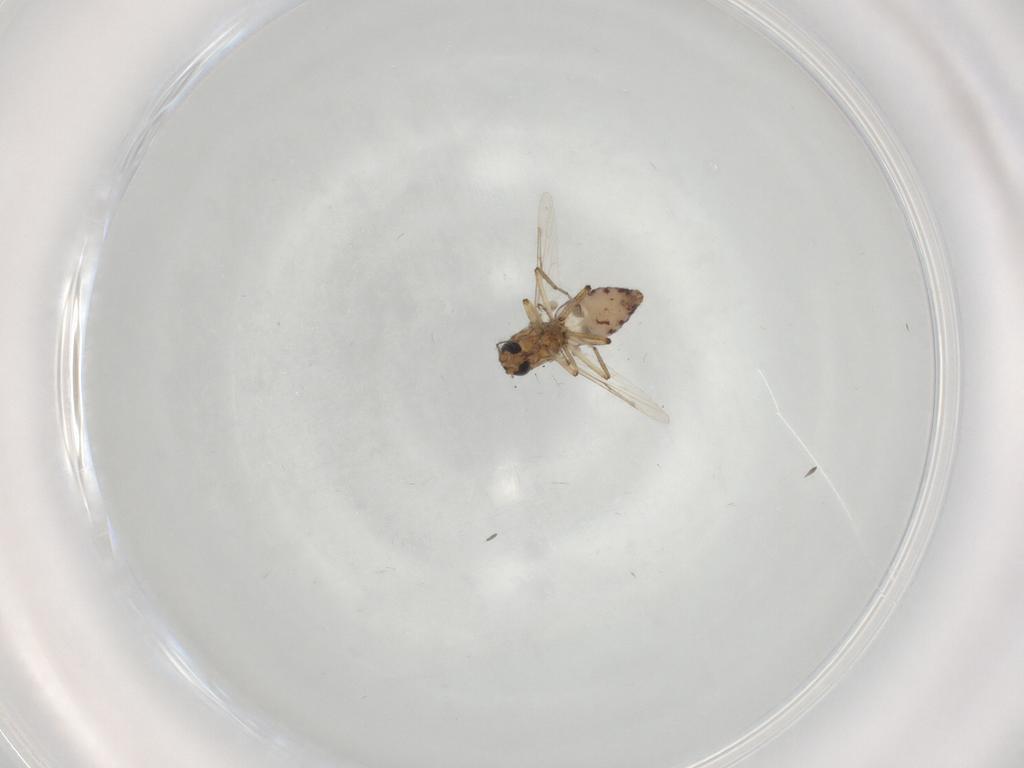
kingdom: Animalia
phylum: Arthropoda
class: Insecta
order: Diptera
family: Ceratopogonidae
